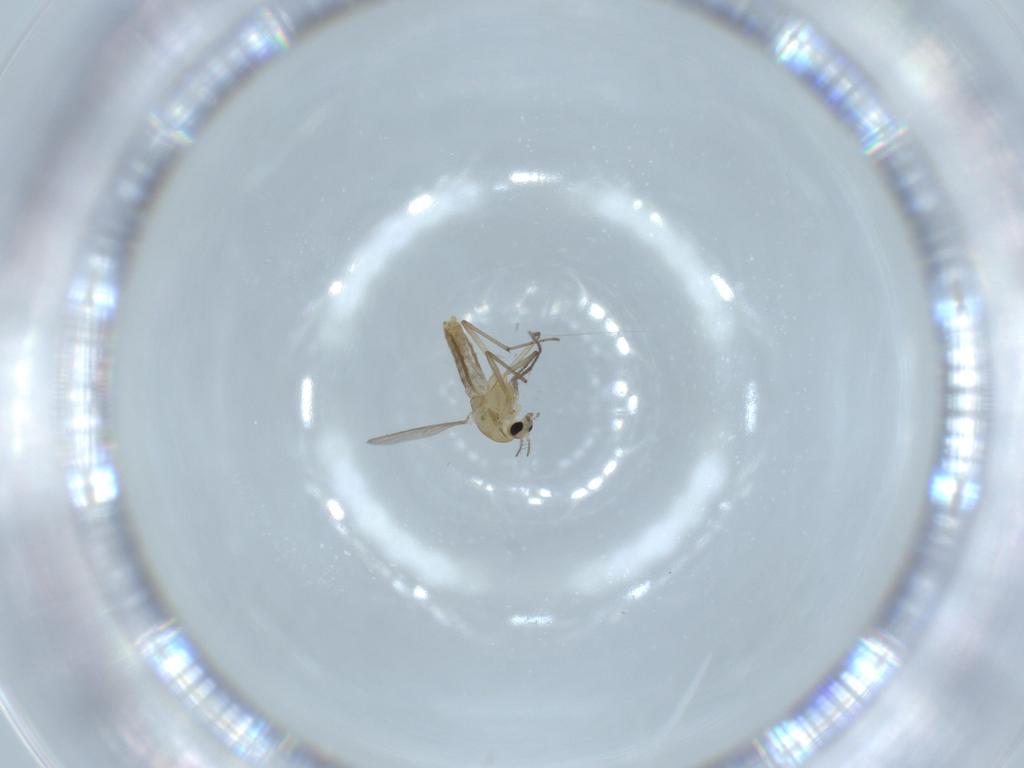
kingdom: Animalia
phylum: Arthropoda
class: Insecta
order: Diptera
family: Chironomidae
